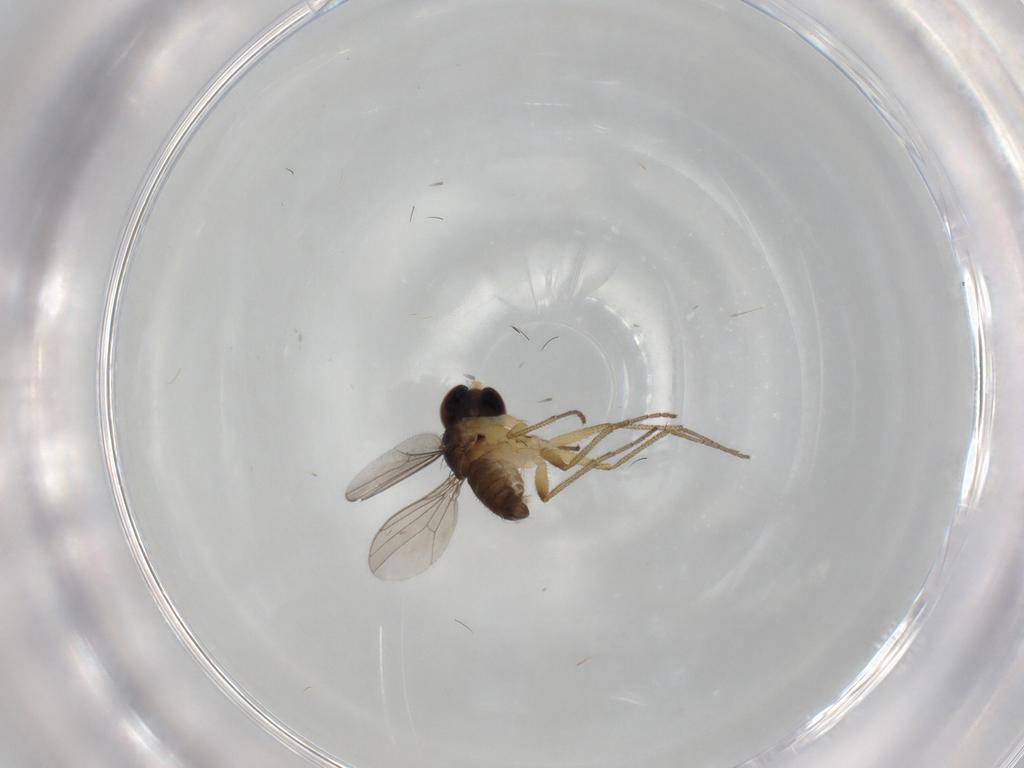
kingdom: Animalia
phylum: Arthropoda
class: Insecta
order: Diptera
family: Dolichopodidae
